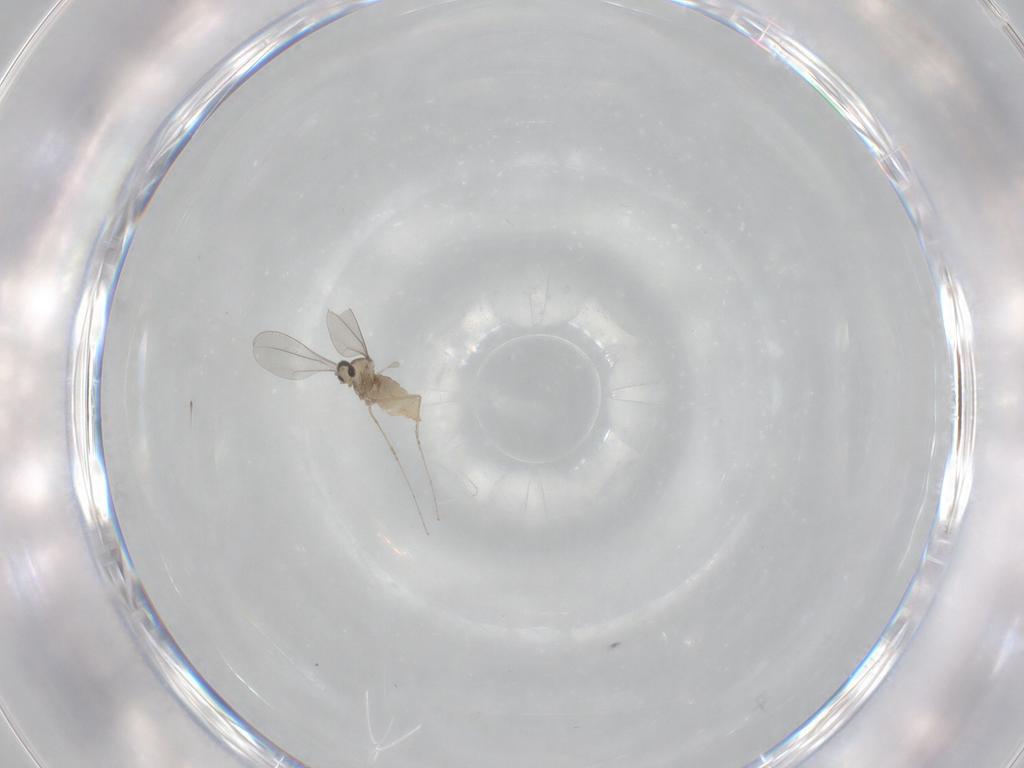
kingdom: Animalia
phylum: Arthropoda
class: Insecta
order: Diptera
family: Cecidomyiidae
